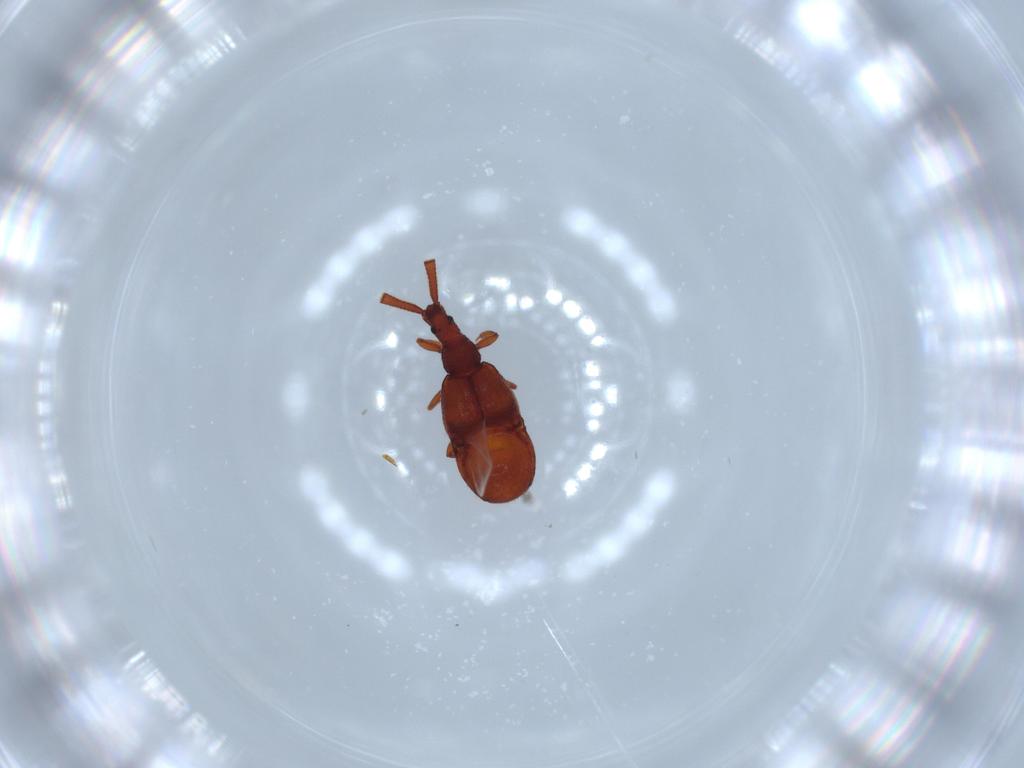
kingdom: Animalia
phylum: Arthropoda
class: Insecta
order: Coleoptera
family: Staphylinidae
